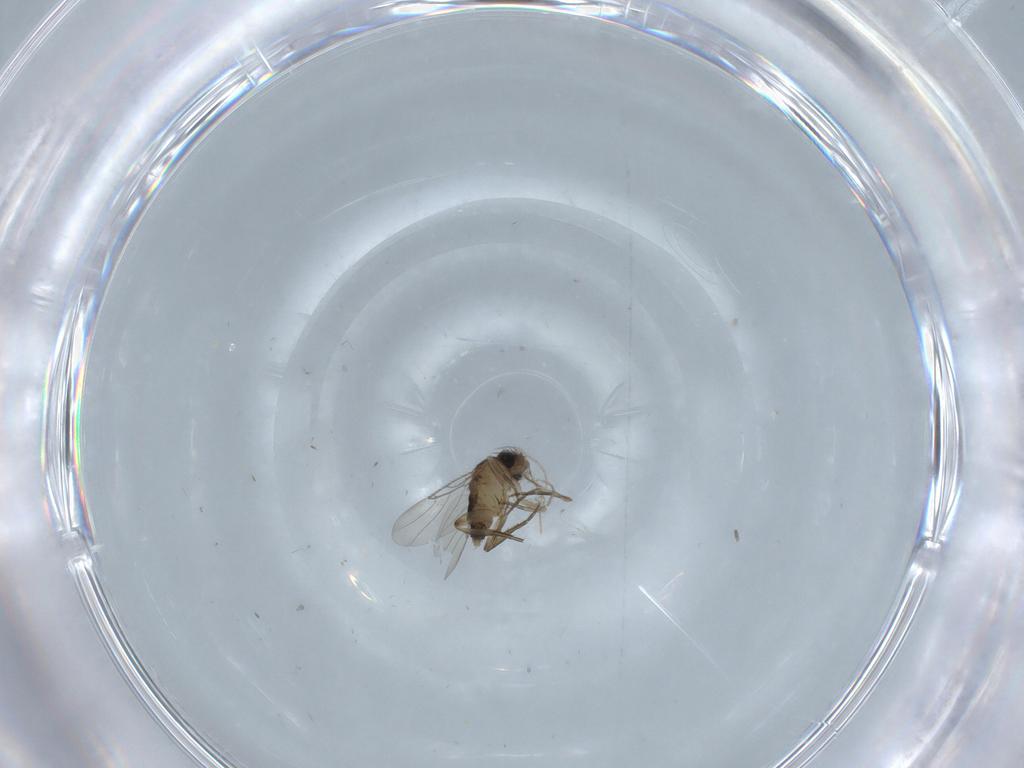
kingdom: Animalia
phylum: Arthropoda
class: Insecta
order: Diptera
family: Phoridae
